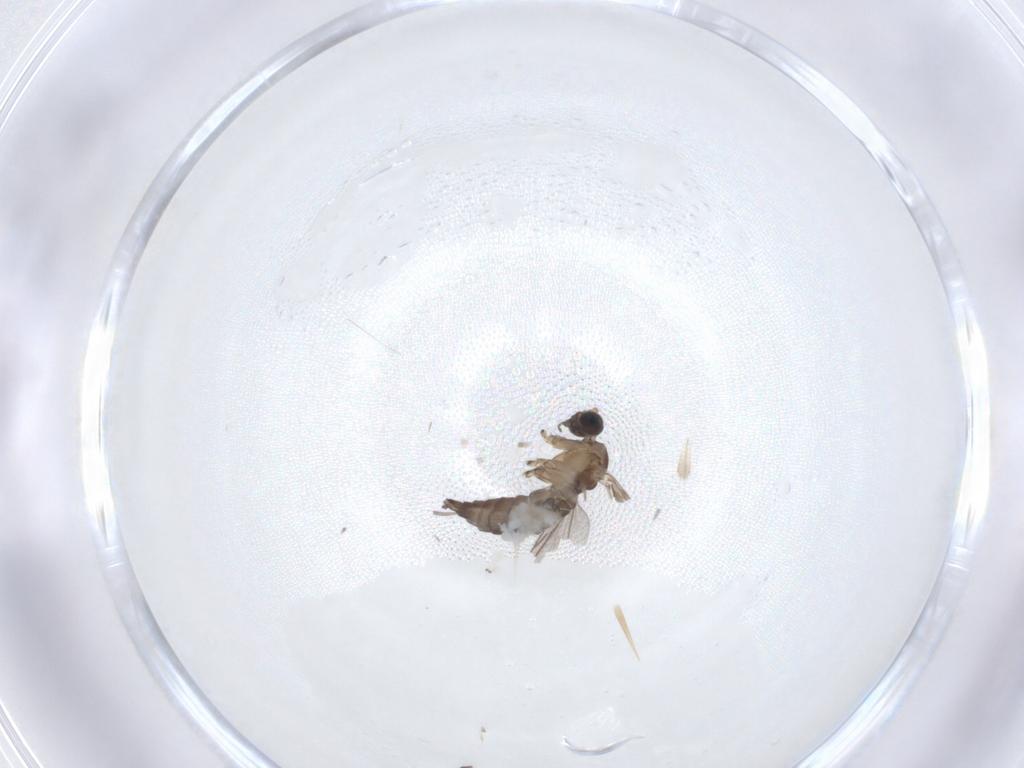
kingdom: Animalia
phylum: Arthropoda
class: Insecta
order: Diptera
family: Sciaridae
